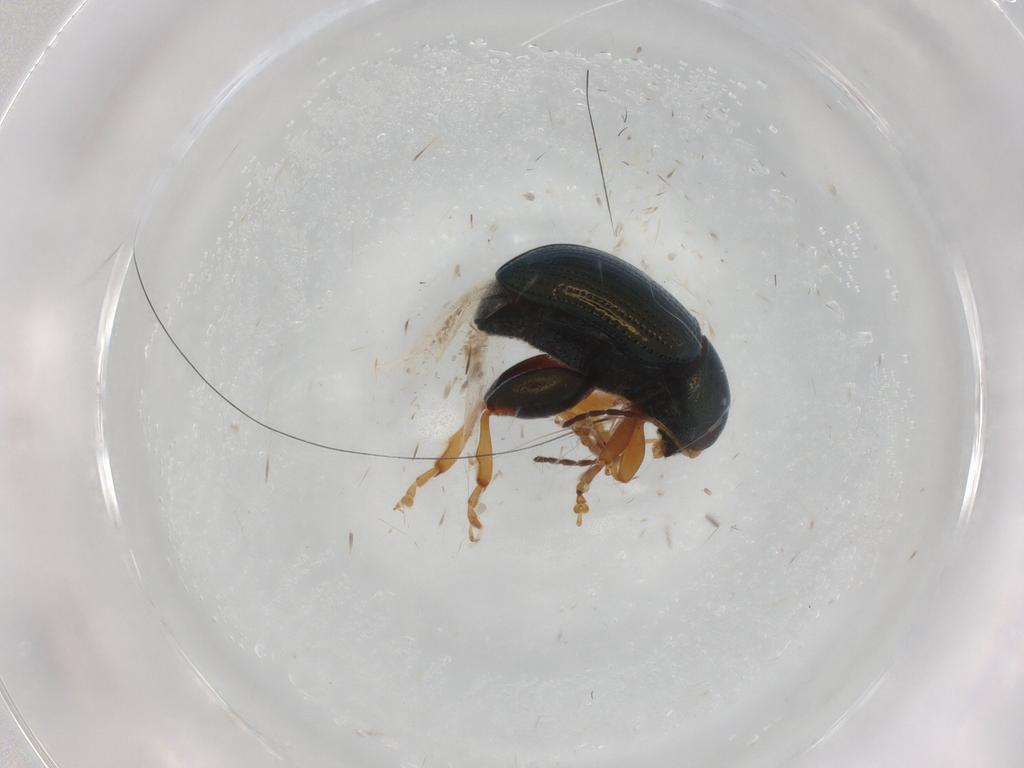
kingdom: Animalia
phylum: Arthropoda
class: Insecta
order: Coleoptera
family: Chrysomelidae
